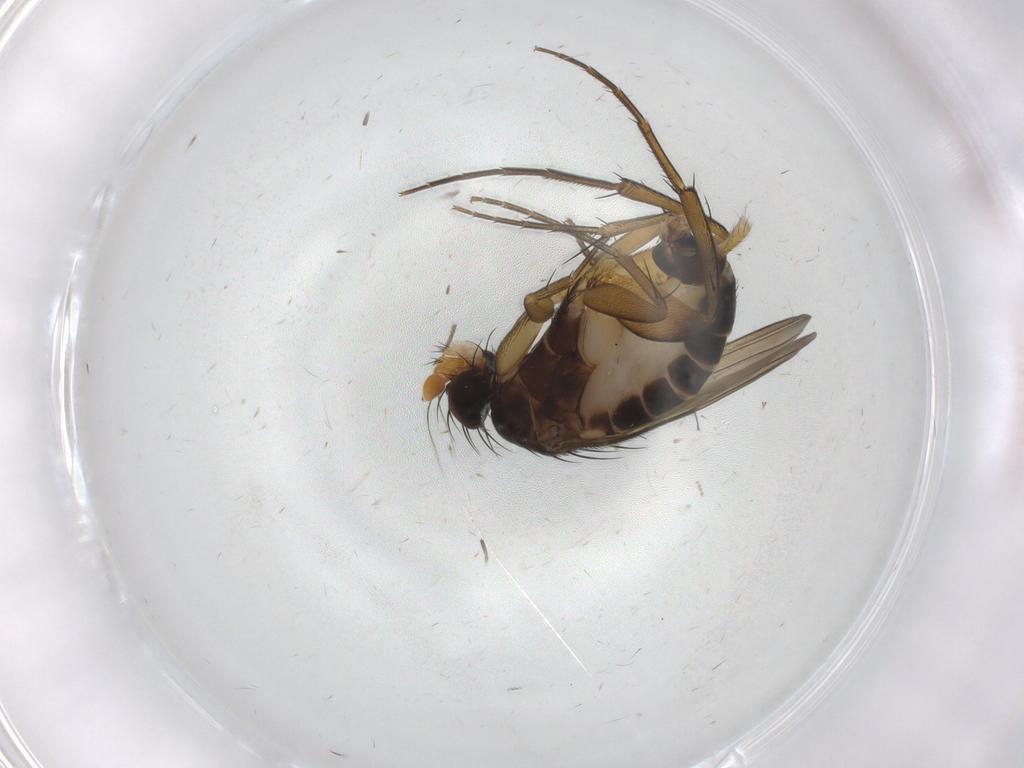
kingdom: Animalia
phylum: Arthropoda
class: Insecta
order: Diptera
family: Phoridae
